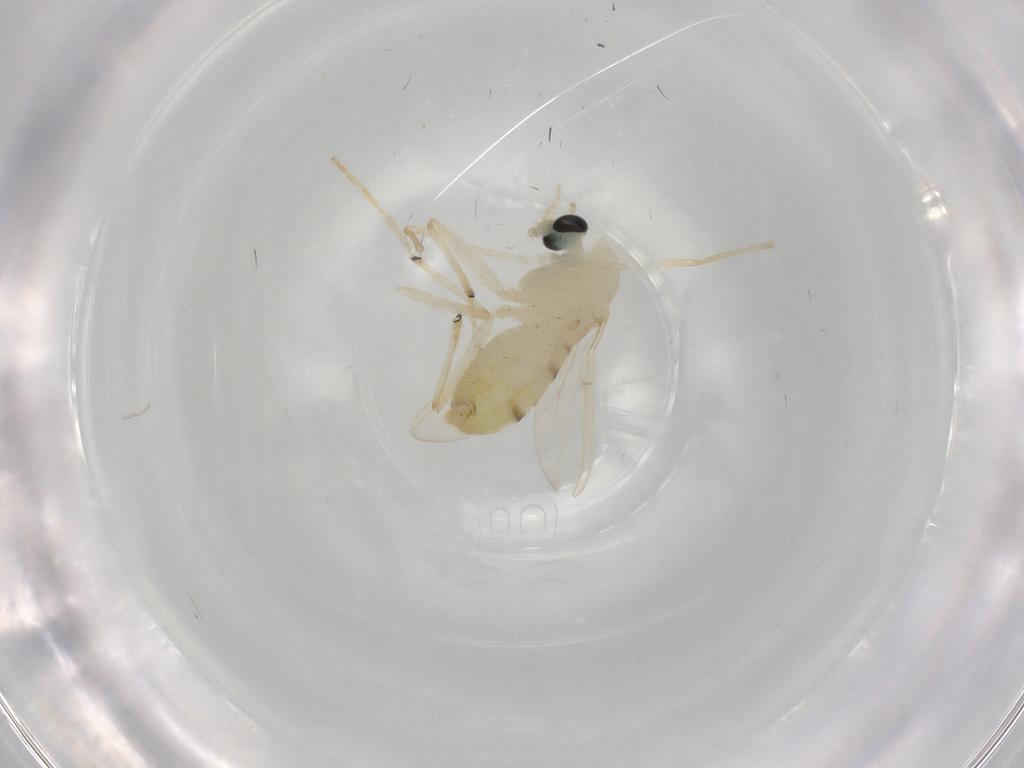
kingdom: Animalia
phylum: Arthropoda
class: Insecta
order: Diptera
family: Chironomidae
